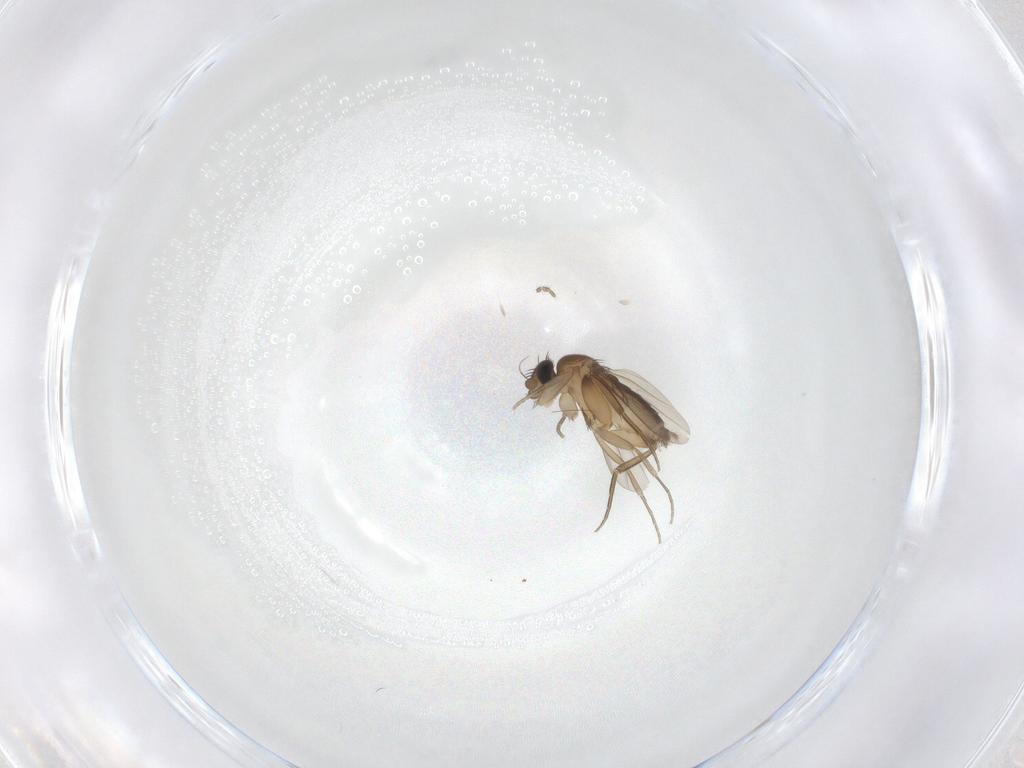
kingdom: Animalia
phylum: Arthropoda
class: Insecta
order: Diptera
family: Phoridae
